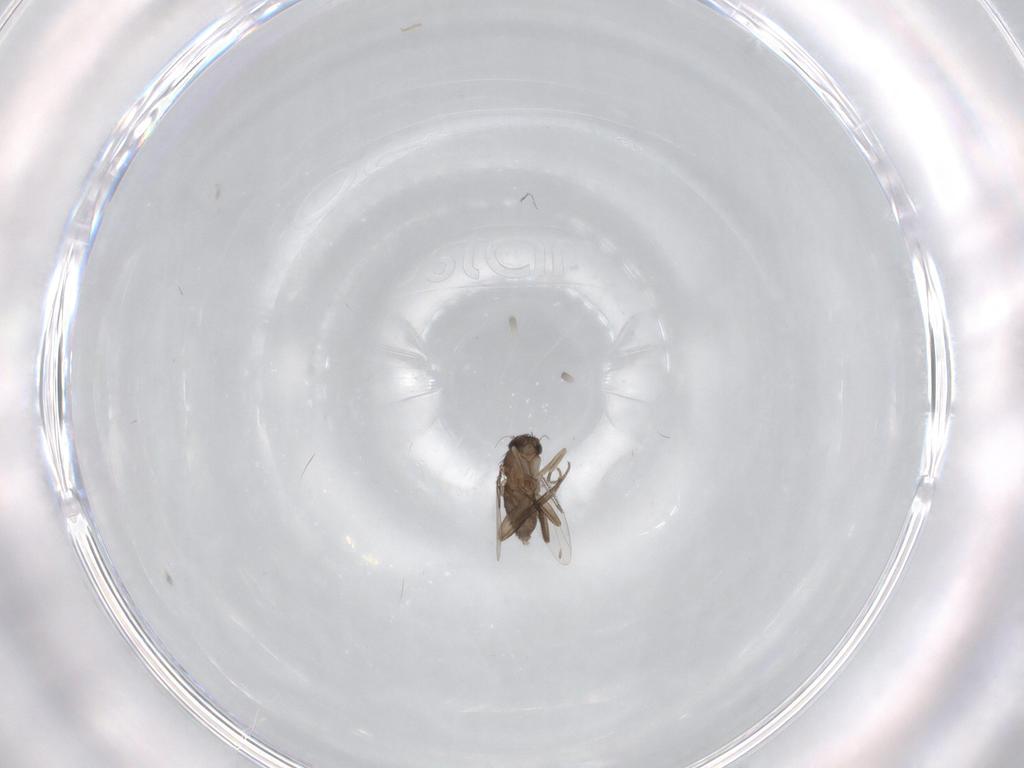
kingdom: Animalia
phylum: Arthropoda
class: Insecta
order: Diptera
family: Phoridae
